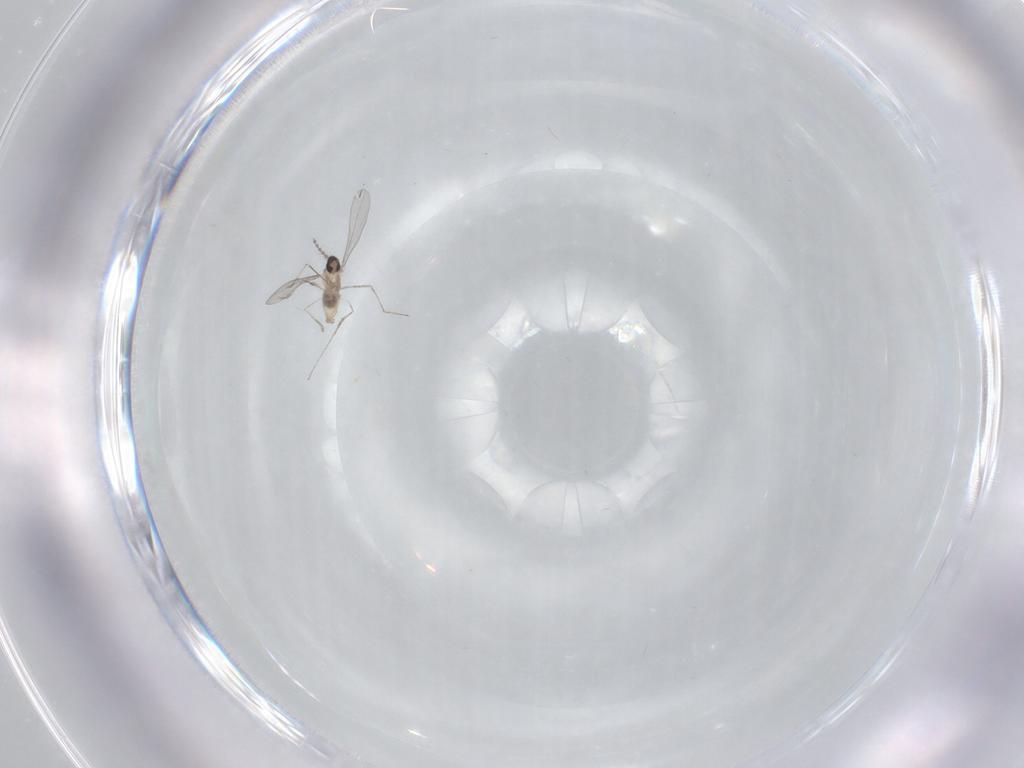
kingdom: Animalia
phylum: Arthropoda
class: Insecta
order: Diptera
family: Cecidomyiidae
